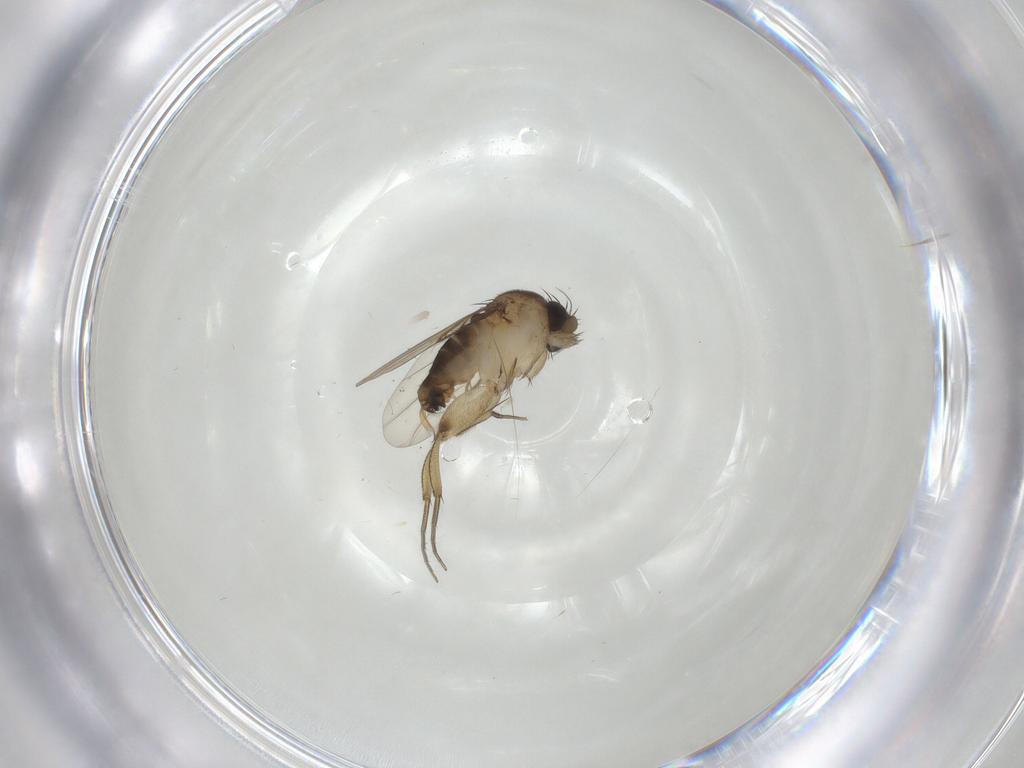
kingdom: Animalia
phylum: Arthropoda
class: Insecta
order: Diptera
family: Phoridae
